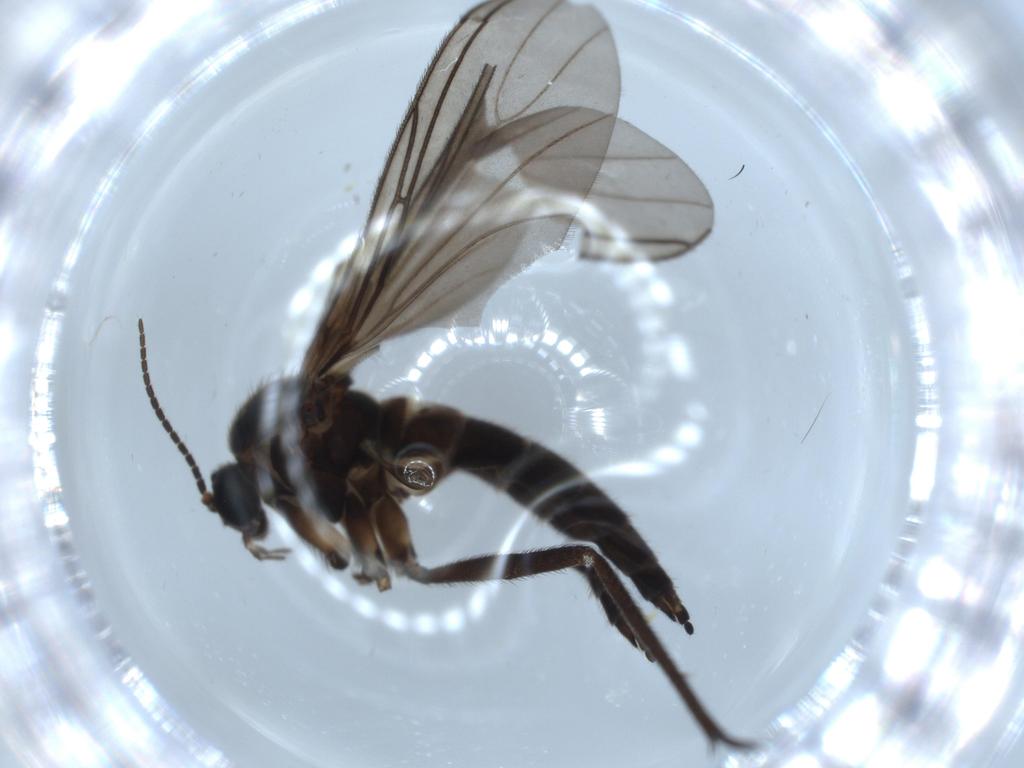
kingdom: Animalia
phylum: Arthropoda
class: Insecta
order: Diptera
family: Sciaridae
